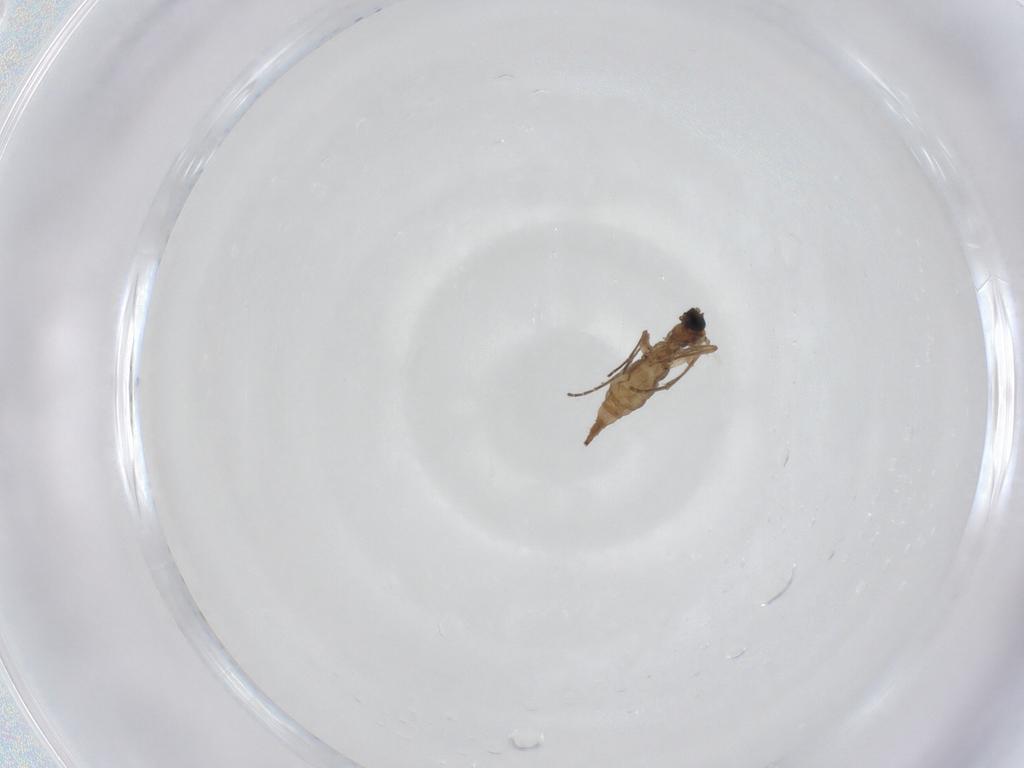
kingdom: Animalia
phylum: Arthropoda
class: Insecta
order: Diptera
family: Sciaridae
